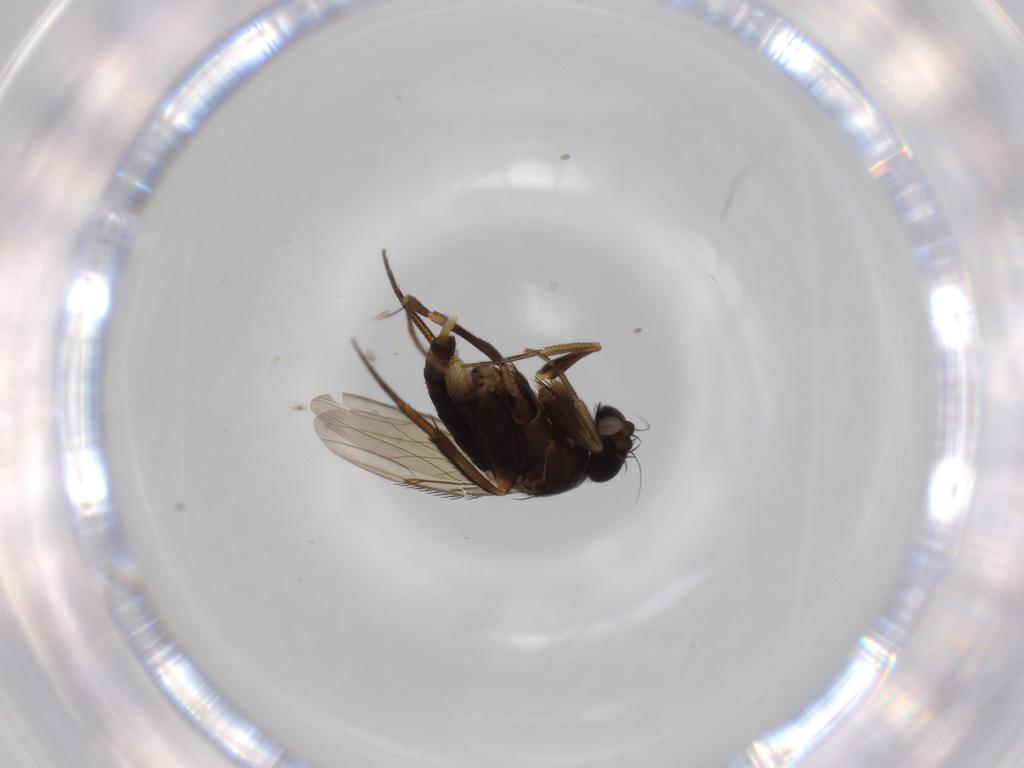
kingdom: Animalia
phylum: Arthropoda
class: Insecta
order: Diptera
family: Phoridae
